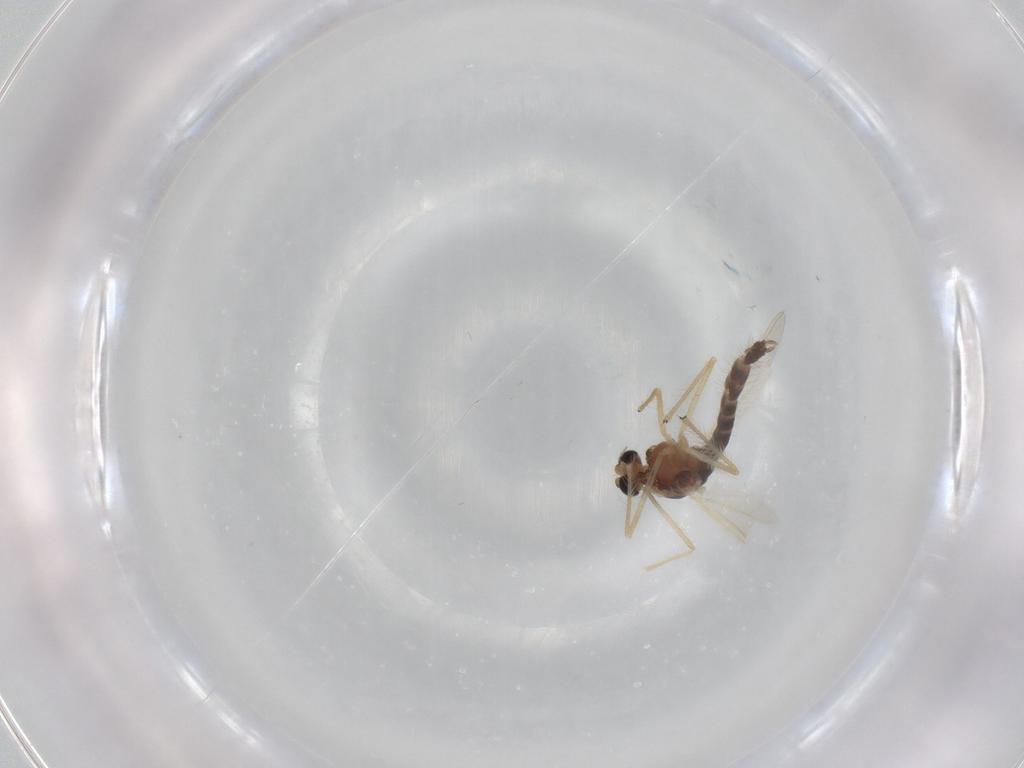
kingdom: Animalia
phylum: Arthropoda
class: Insecta
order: Diptera
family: Chironomidae
